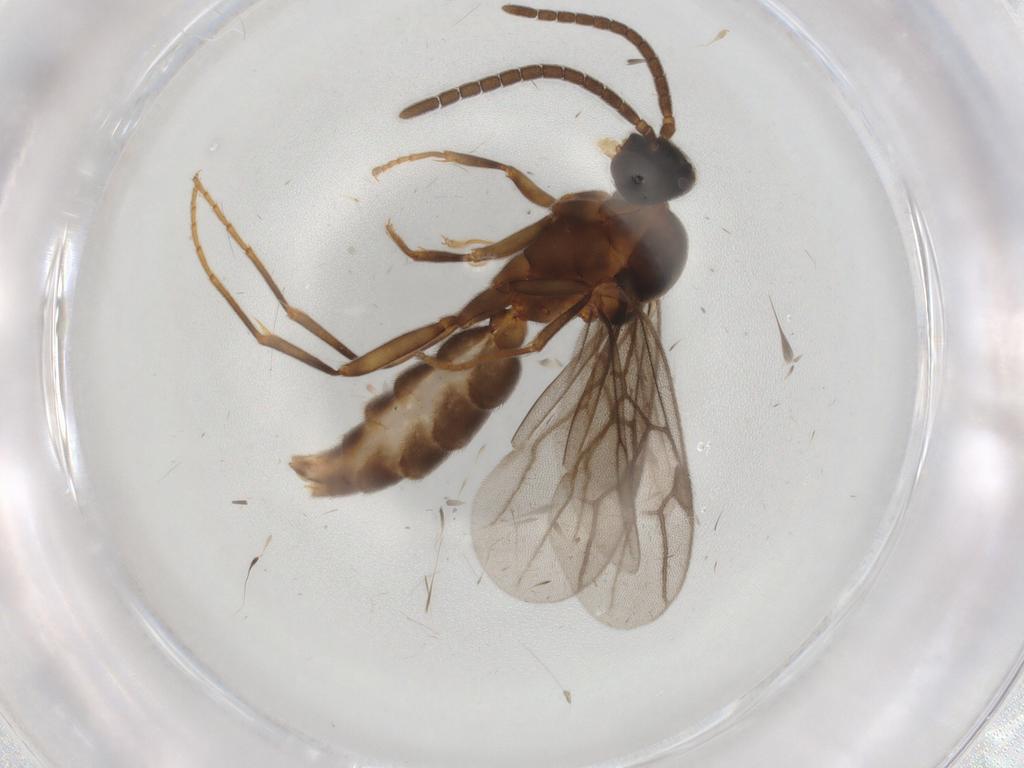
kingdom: Animalia
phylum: Arthropoda
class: Insecta
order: Hymenoptera
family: Formicidae
